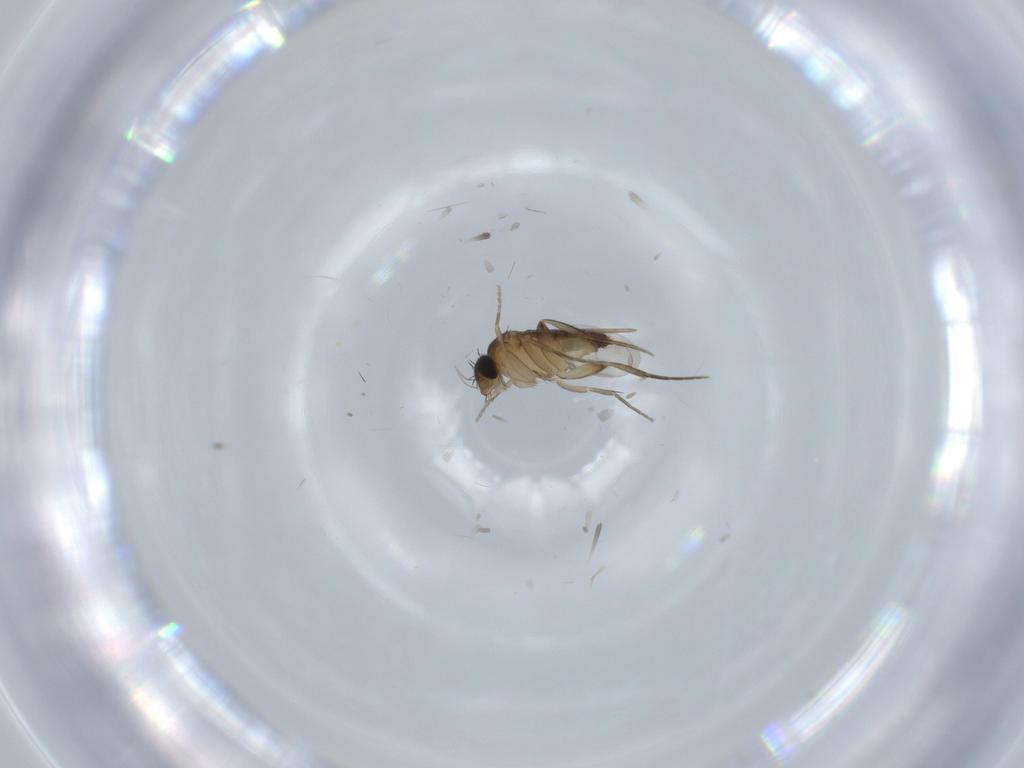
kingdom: Animalia
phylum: Arthropoda
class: Insecta
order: Diptera
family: Phoridae
